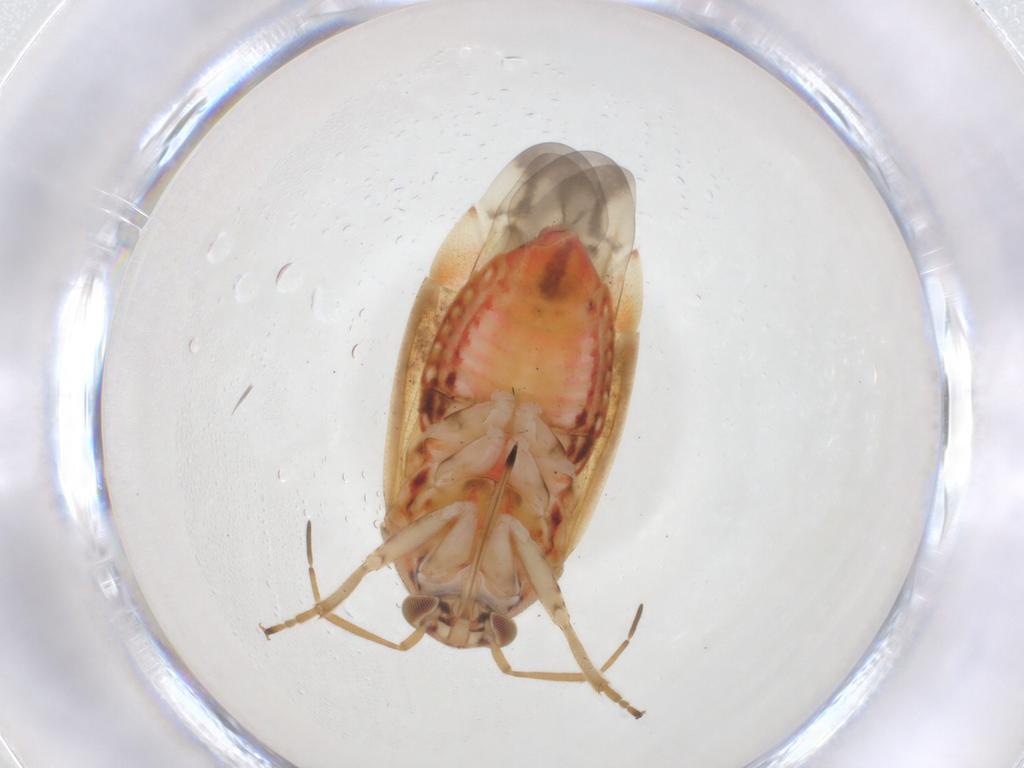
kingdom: Animalia
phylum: Arthropoda
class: Insecta
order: Hemiptera
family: Miridae
